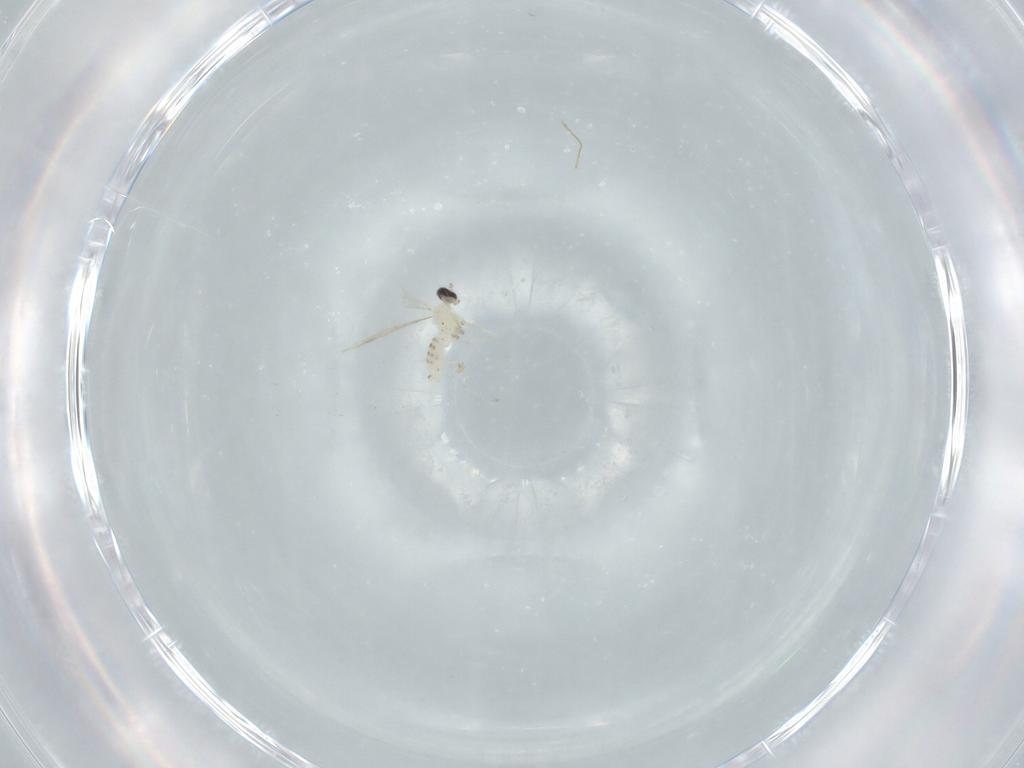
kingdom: Animalia
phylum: Arthropoda
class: Insecta
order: Diptera
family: Cecidomyiidae
